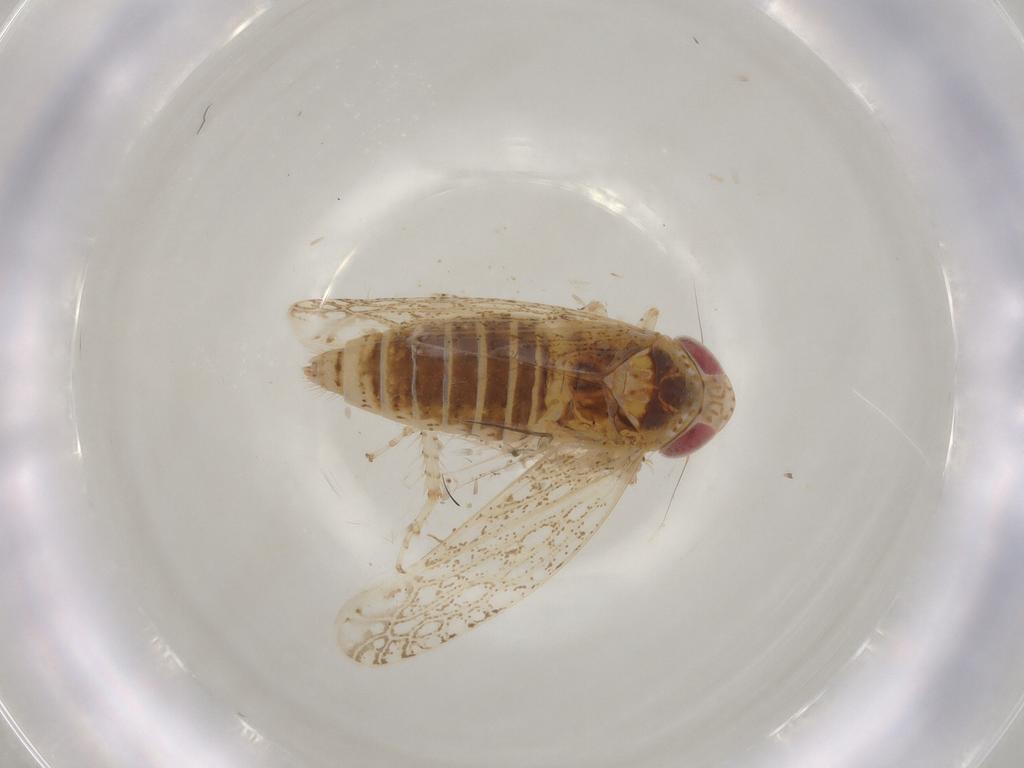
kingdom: Animalia
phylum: Arthropoda
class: Insecta
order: Hemiptera
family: Cicadellidae
